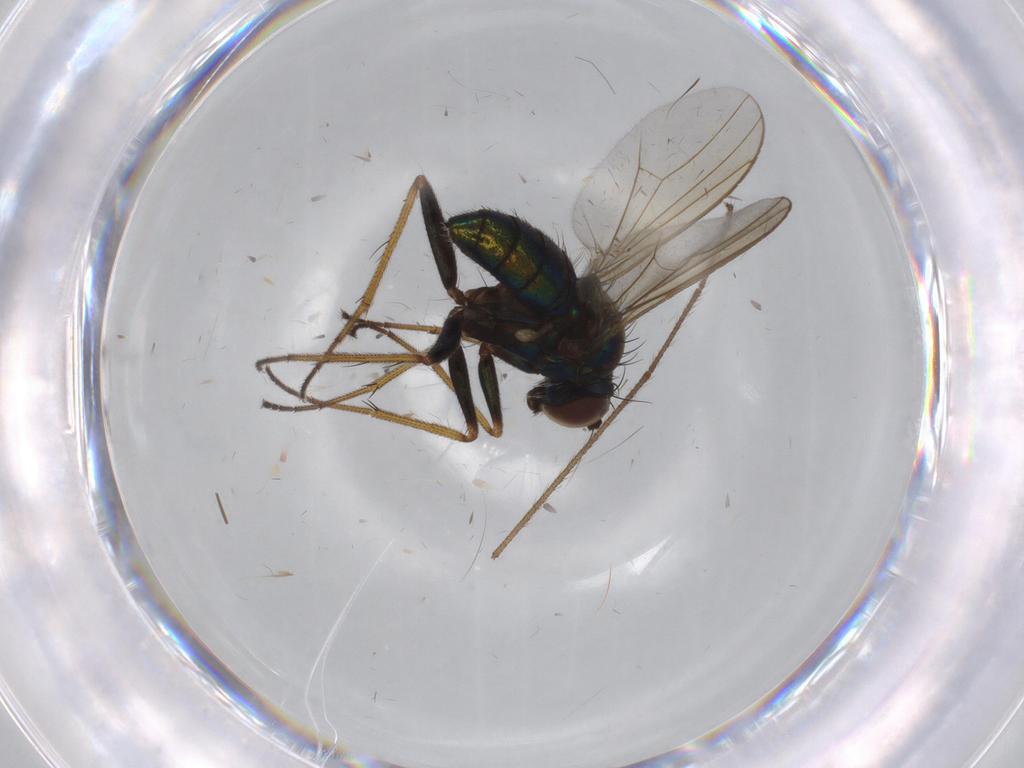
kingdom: Animalia
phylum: Arthropoda
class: Insecta
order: Diptera
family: Dolichopodidae
